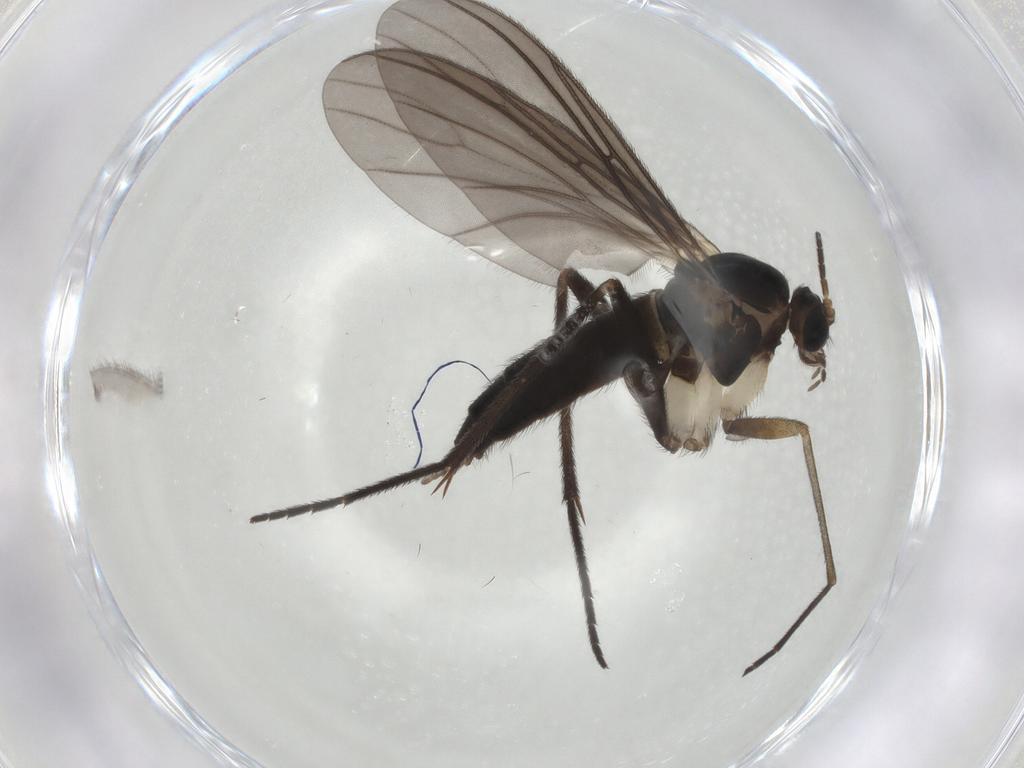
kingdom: Animalia
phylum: Arthropoda
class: Insecta
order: Diptera
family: Sciaridae
